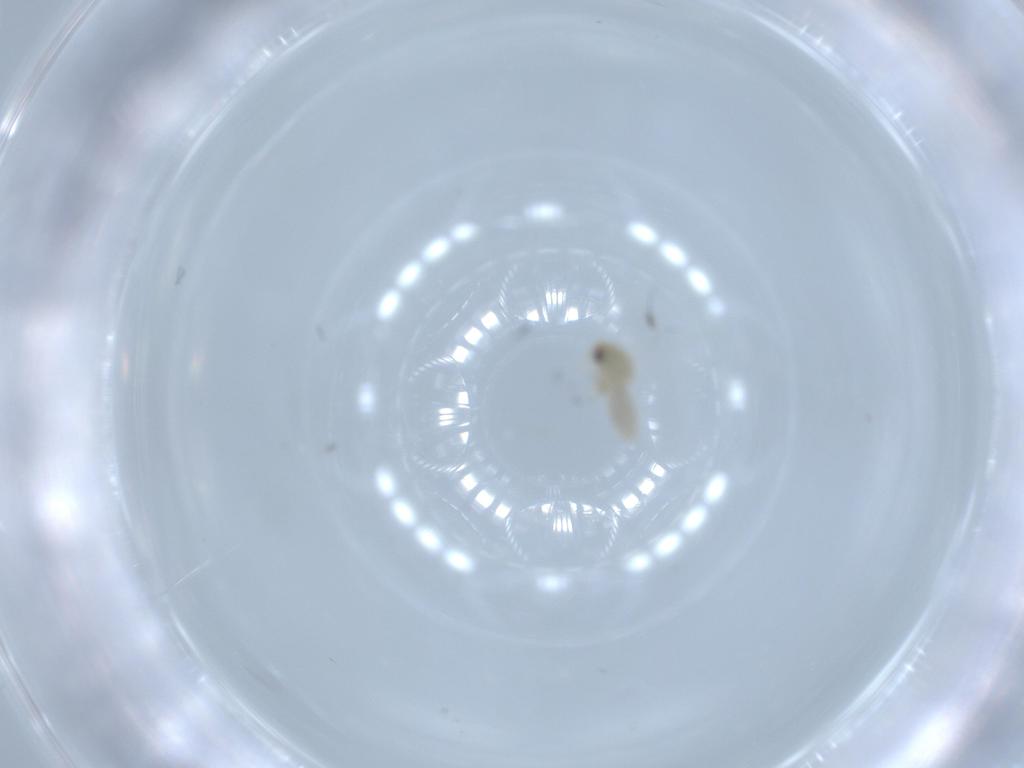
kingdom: Animalia
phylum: Arthropoda
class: Insecta
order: Hemiptera
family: Aleyrodidae
